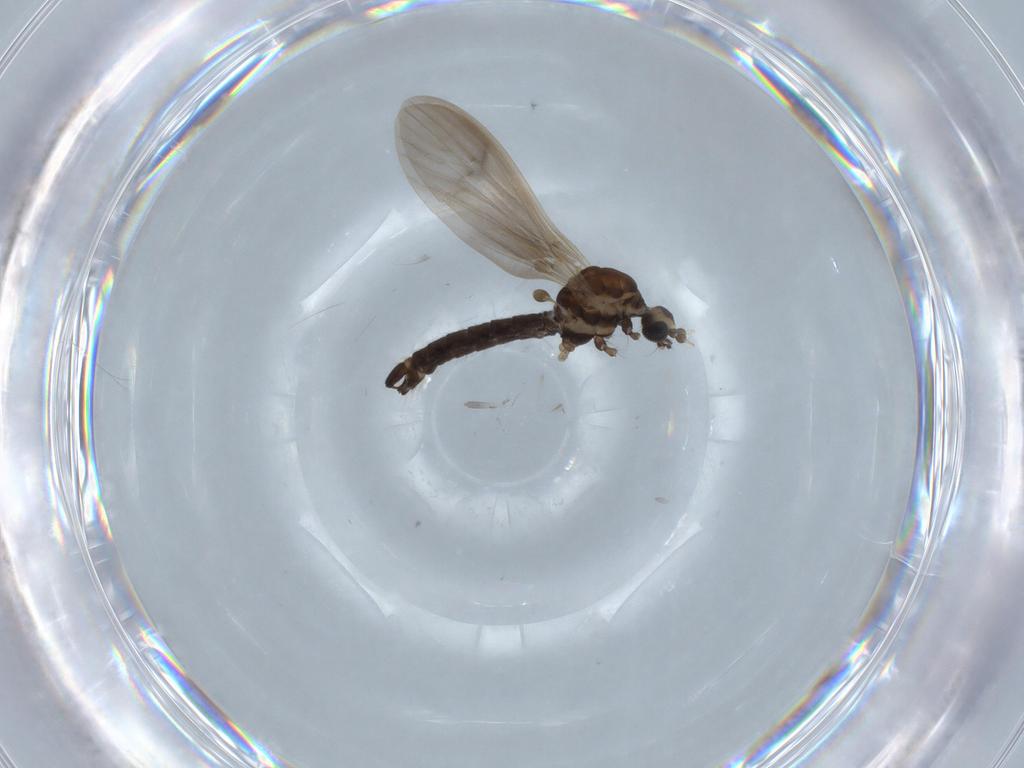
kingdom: Animalia
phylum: Arthropoda
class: Insecta
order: Diptera
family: Limoniidae
